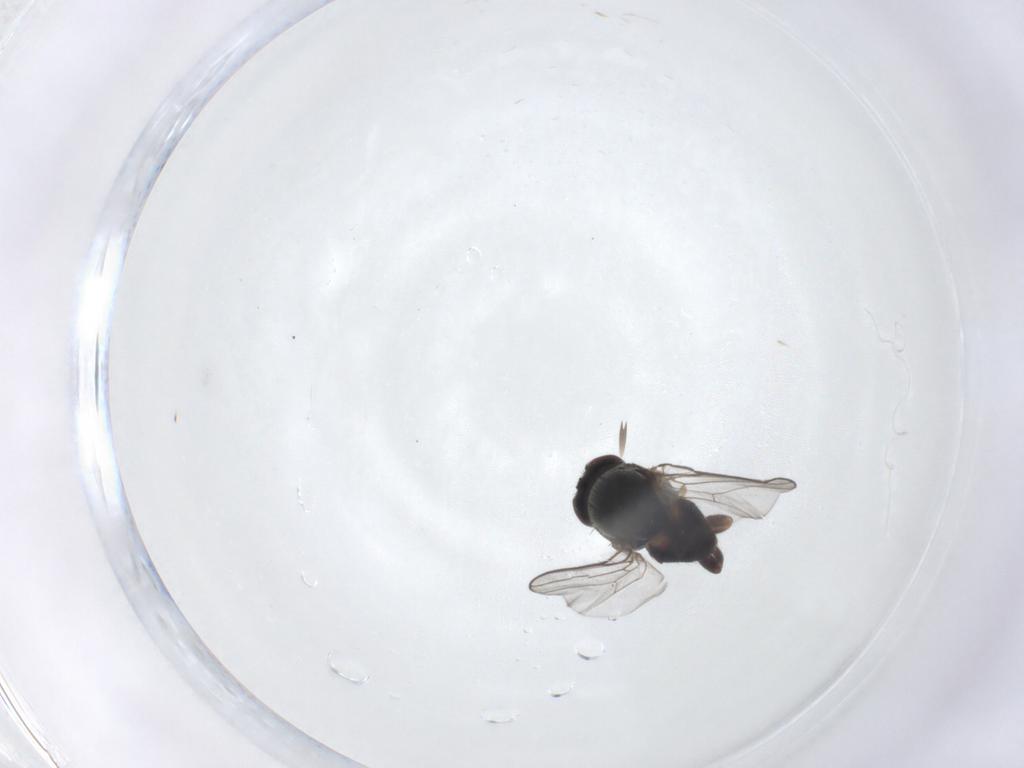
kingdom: Animalia
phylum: Arthropoda
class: Insecta
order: Diptera
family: Chloropidae
